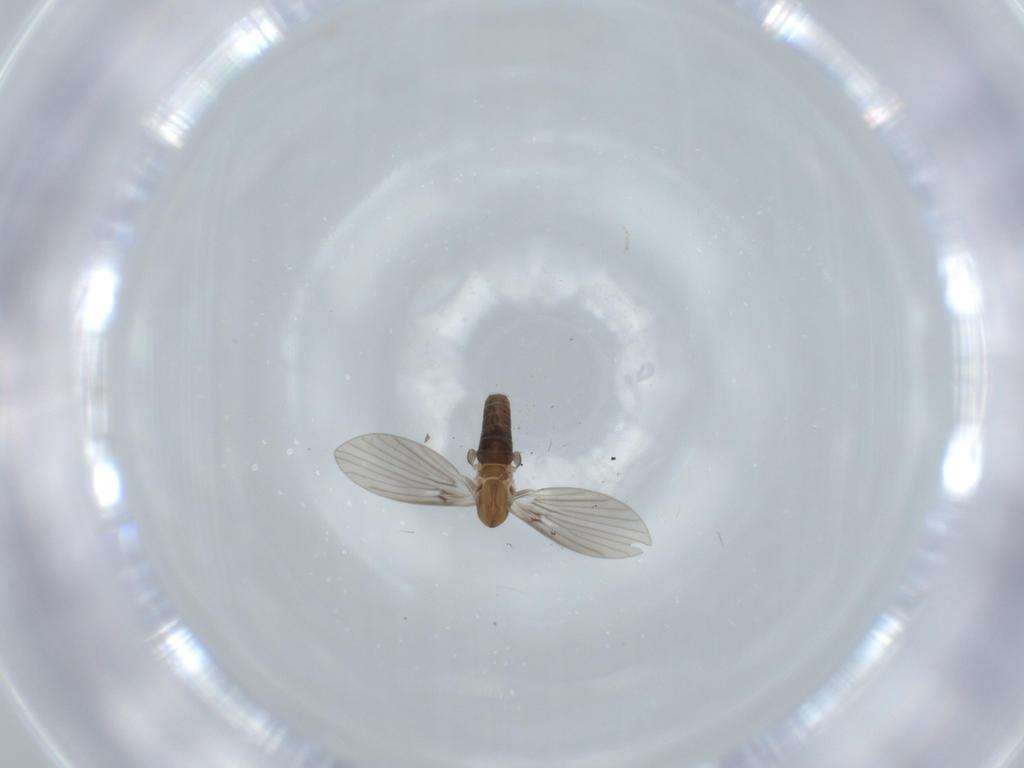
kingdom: Animalia
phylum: Arthropoda
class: Insecta
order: Diptera
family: Psychodidae
